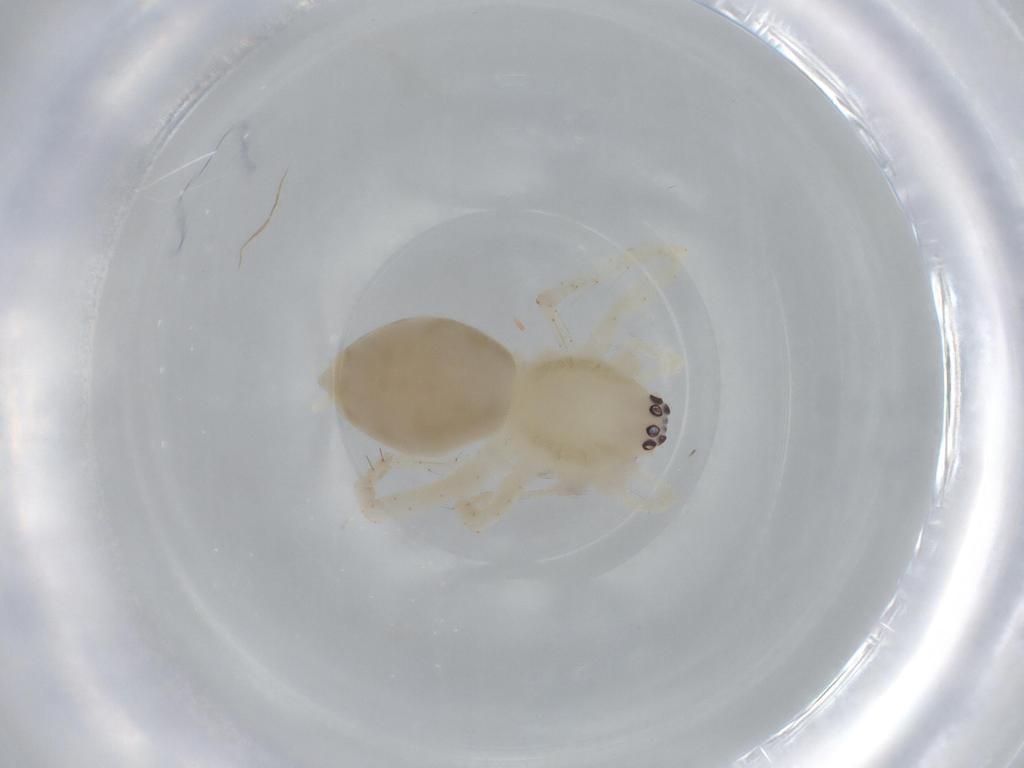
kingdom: Animalia
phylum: Arthropoda
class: Arachnida
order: Araneae
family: Anyphaenidae
